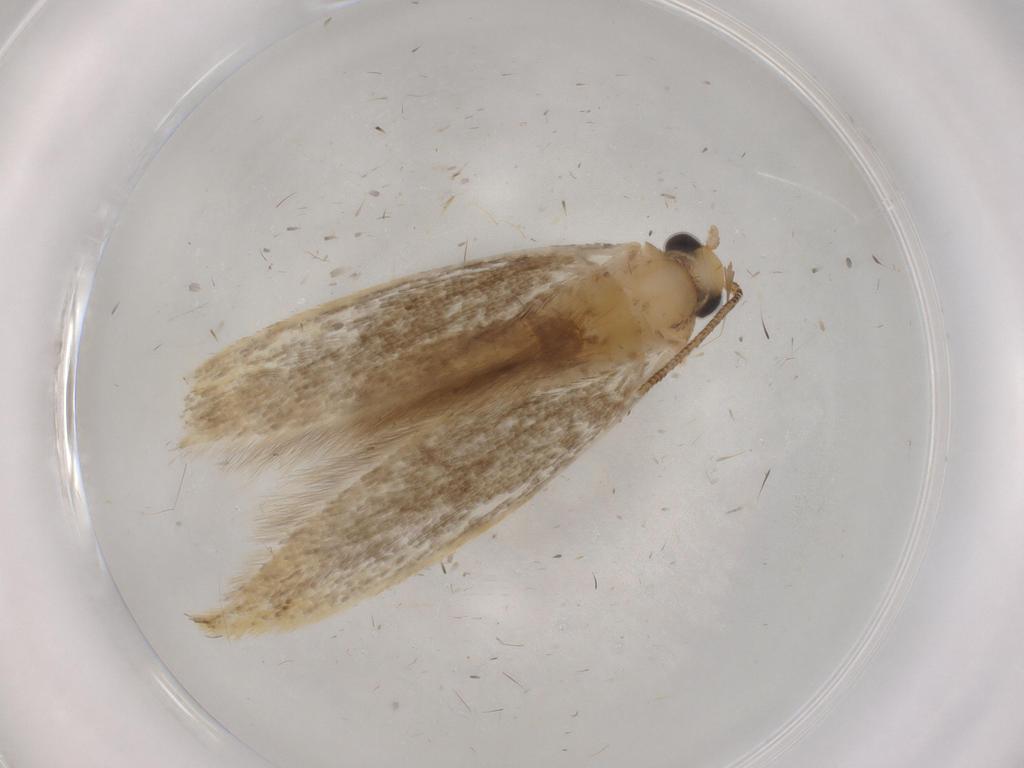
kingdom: Animalia
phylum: Arthropoda
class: Insecta
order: Lepidoptera
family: Tineidae
